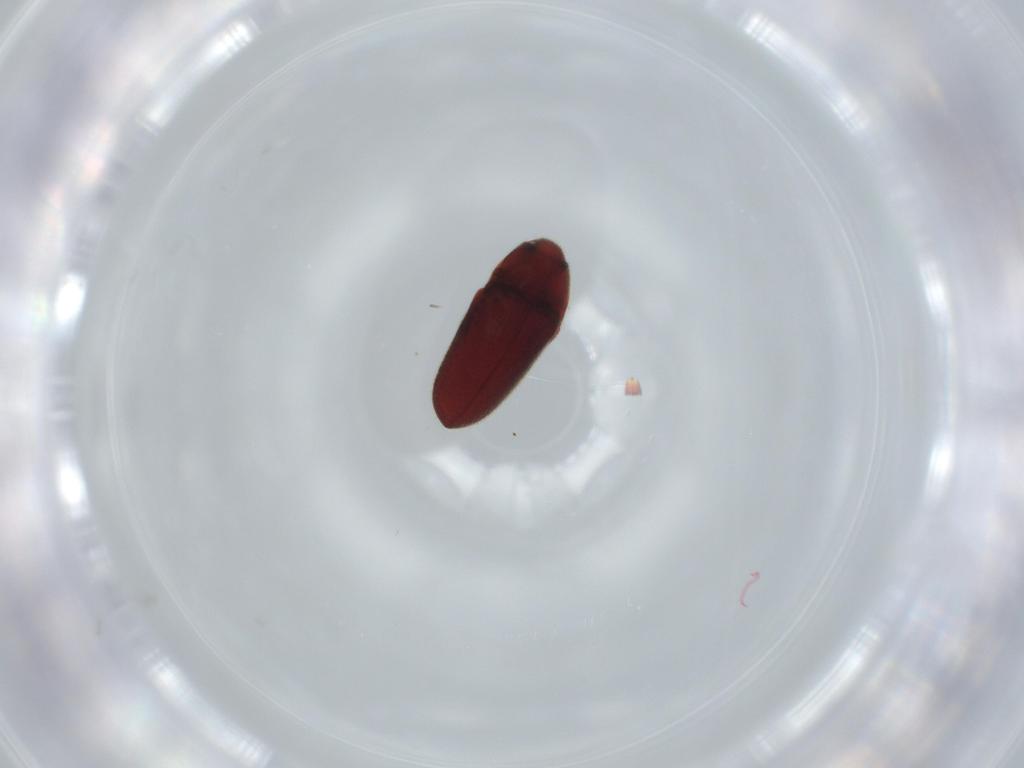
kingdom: Animalia
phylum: Arthropoda
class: Insecta
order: Coleoptera
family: Throscidae
